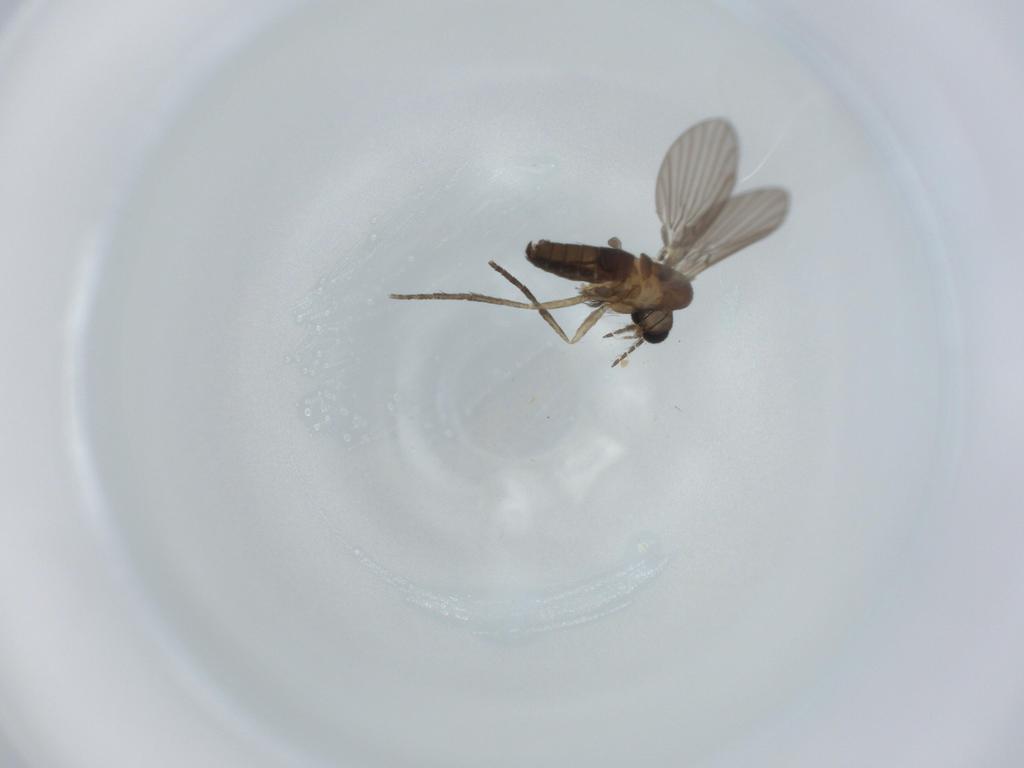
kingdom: Animalia
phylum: Arthropoda
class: Insecta
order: Diptera
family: Psychodidae
